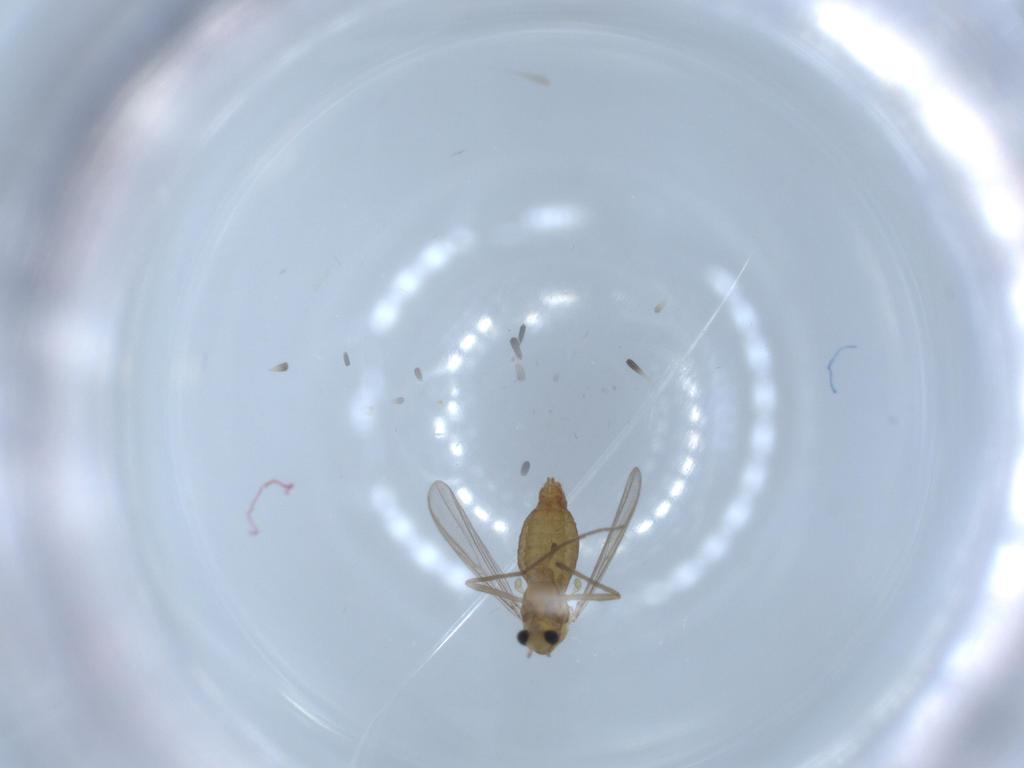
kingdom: Animalia
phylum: Arthropoda
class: Insecta
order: Diptera
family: Chironomidae
